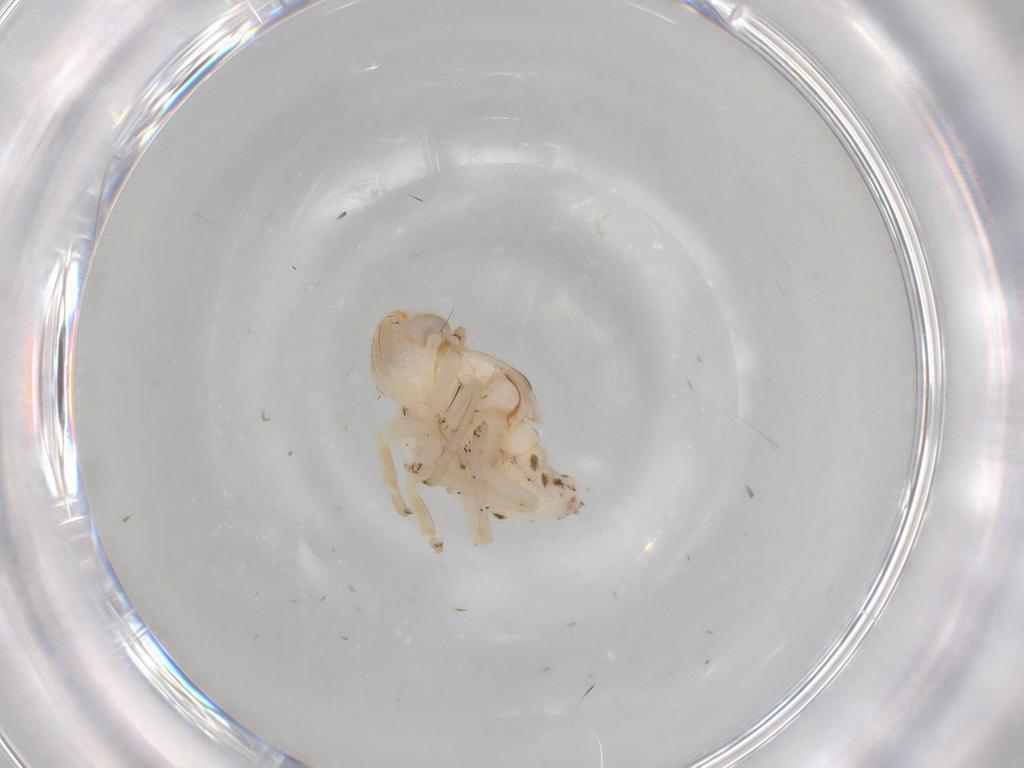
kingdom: Animalia
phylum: Arthropoda
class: Insecta
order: Hemiptera
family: Nogodinidae
